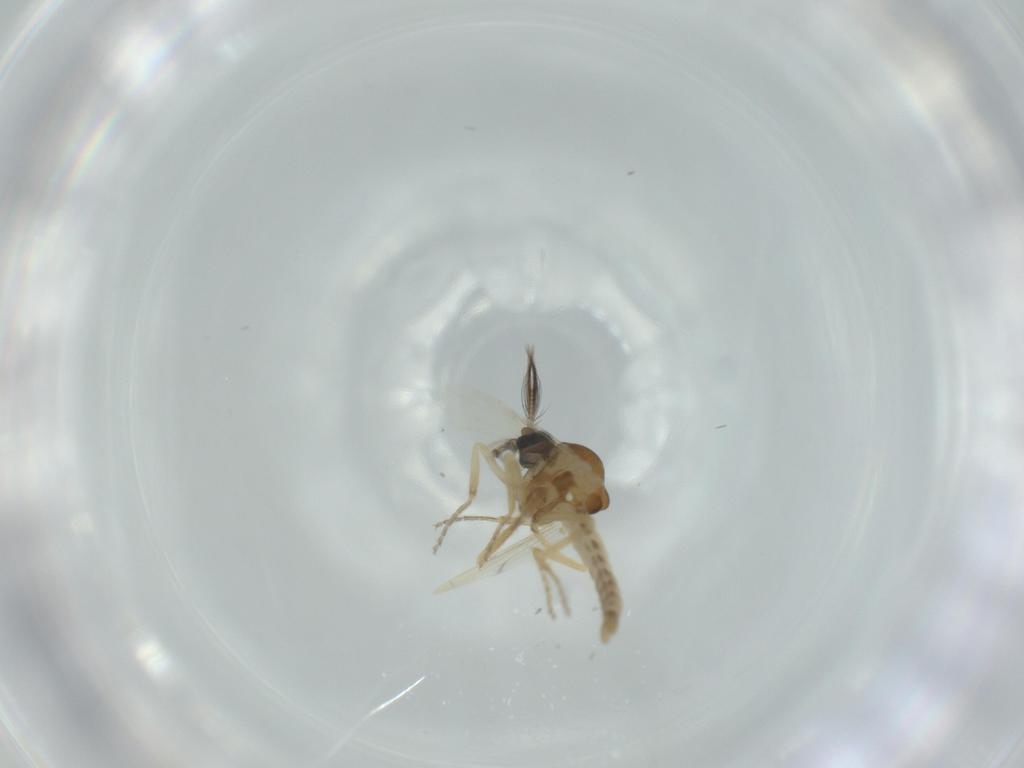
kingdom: Animalia
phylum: Arthropoda
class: Insecta
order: Diptera
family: Ceratopogonidae
